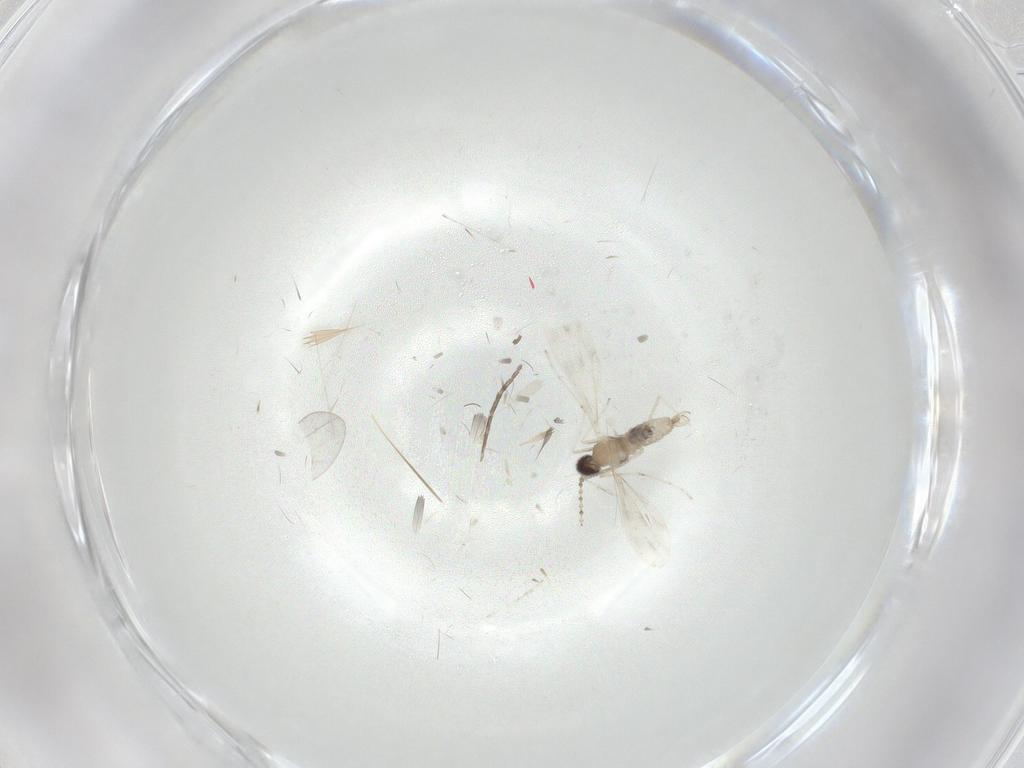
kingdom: Animalia
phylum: Arthropoda
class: Insecta
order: Diptera
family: Cecidomyiidae
